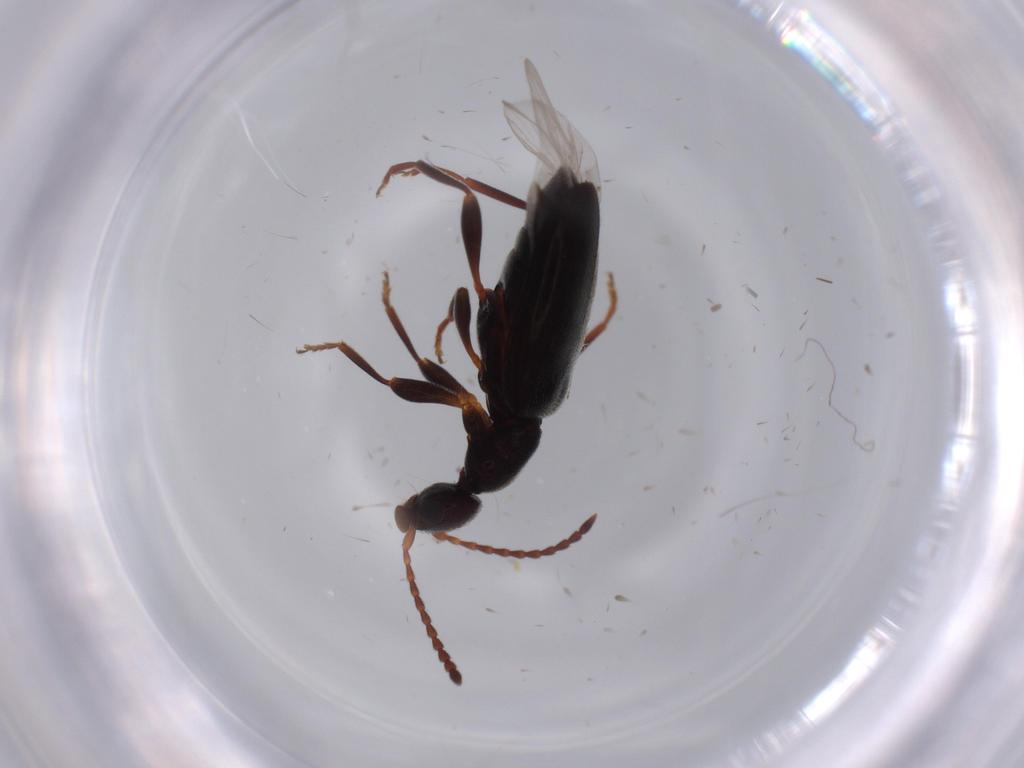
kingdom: Animalia
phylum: Arthropoda
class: Insecta
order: Coleoptera
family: Anthicidae
